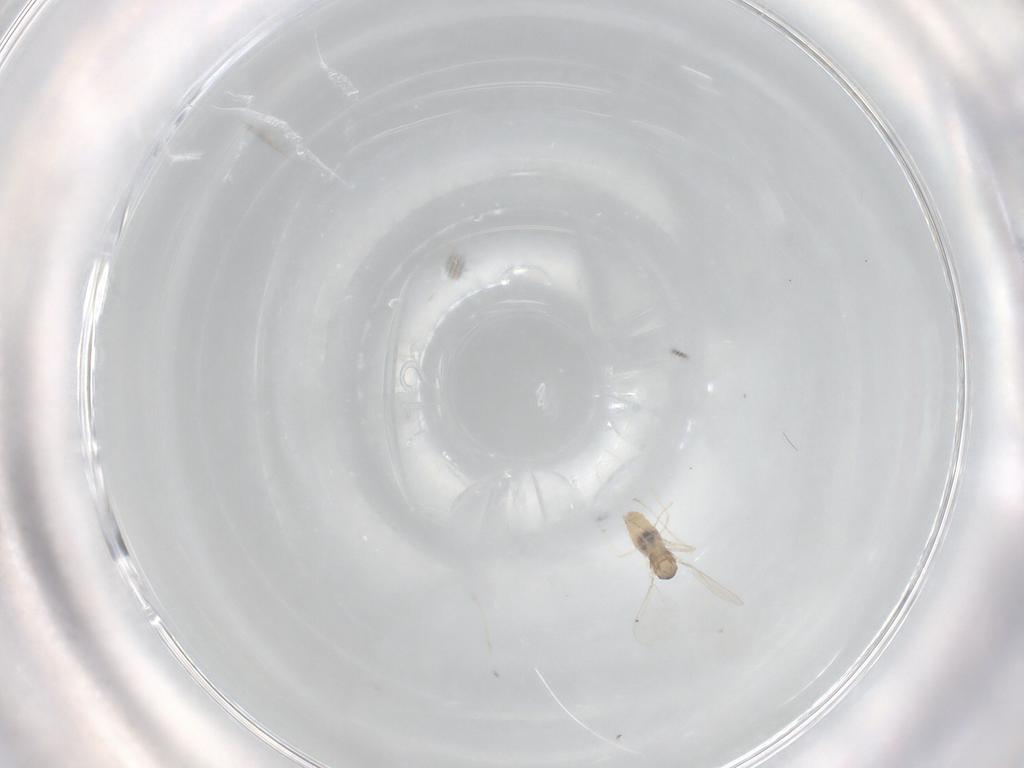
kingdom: Animalia
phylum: Arthropoda
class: Insecta
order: Diptera
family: Cecidomyiidae
